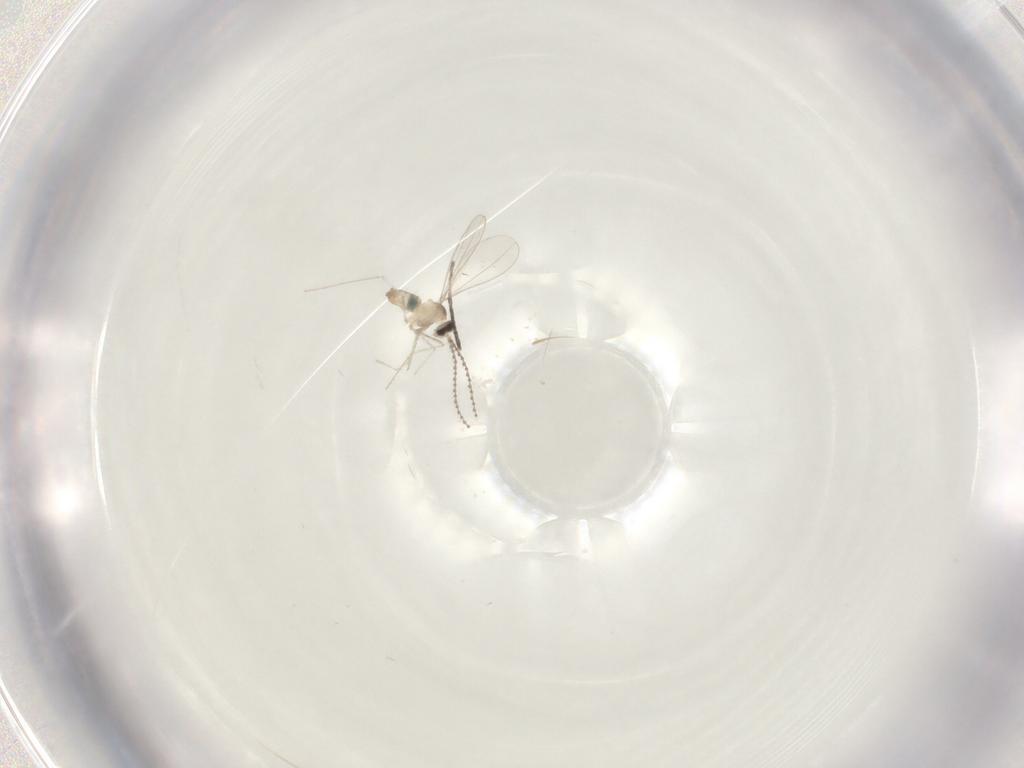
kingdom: Animalia
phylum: Arthropoda
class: Insecta
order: Diptera
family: Cecidomyiidae
